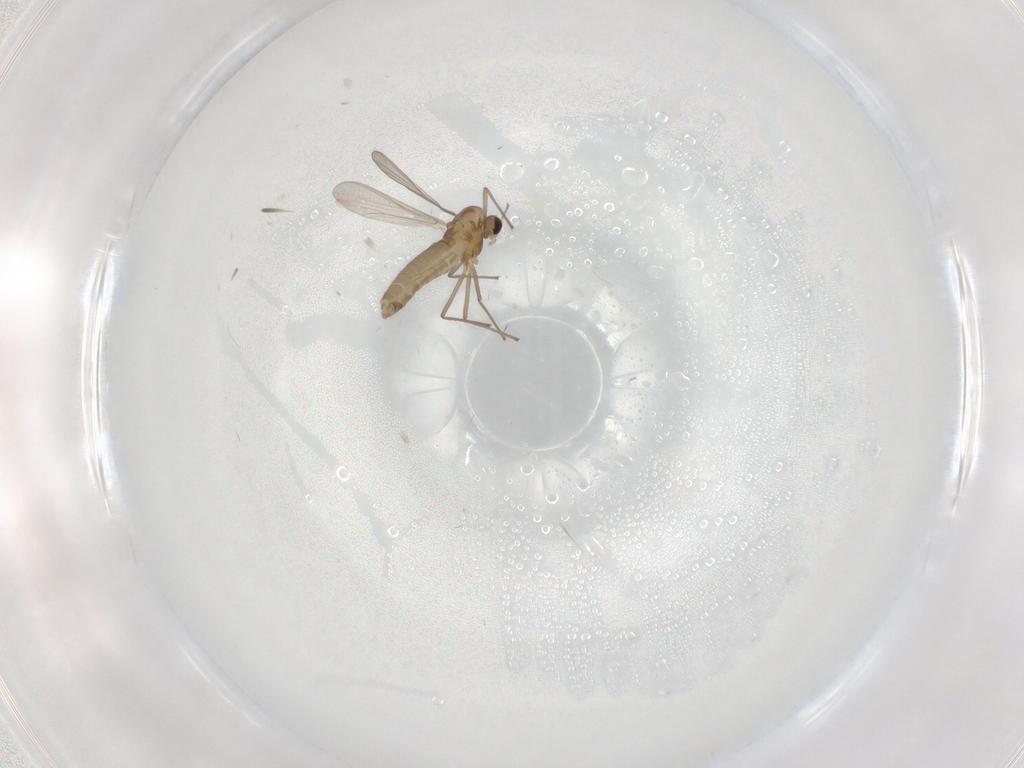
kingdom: Animalia
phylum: Arthropoda
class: Insecta
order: Diptera
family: Chironomidae
